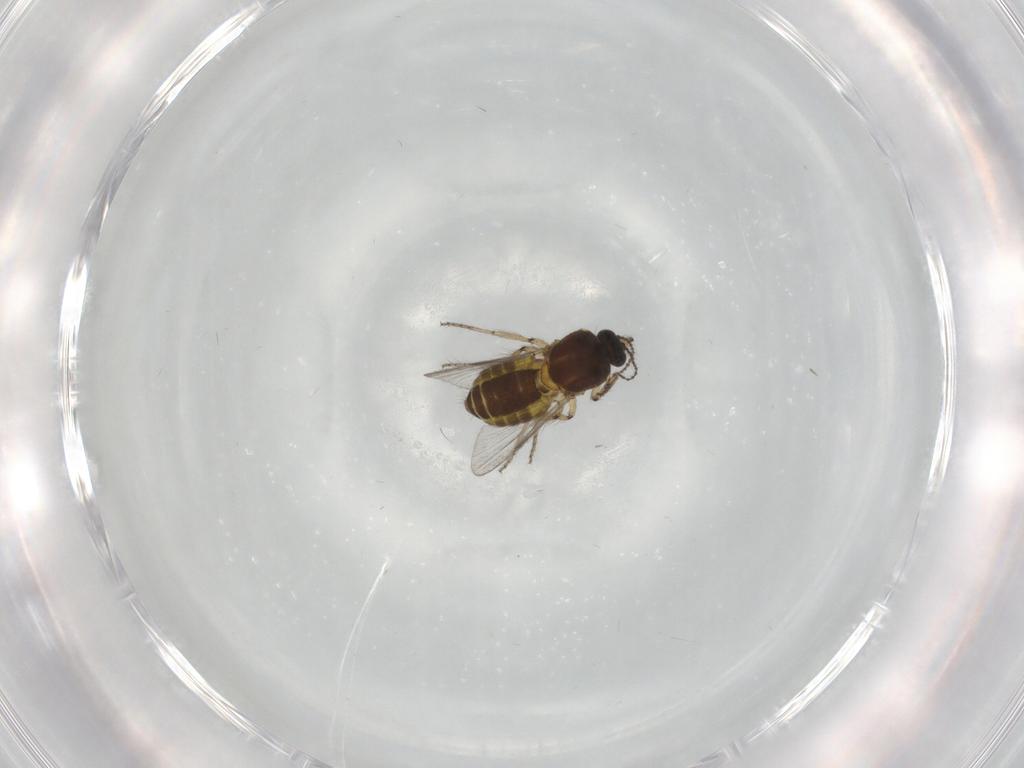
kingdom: Animalia
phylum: Arthropoda
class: Insecta
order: Diptera
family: Ceratopogonidae
